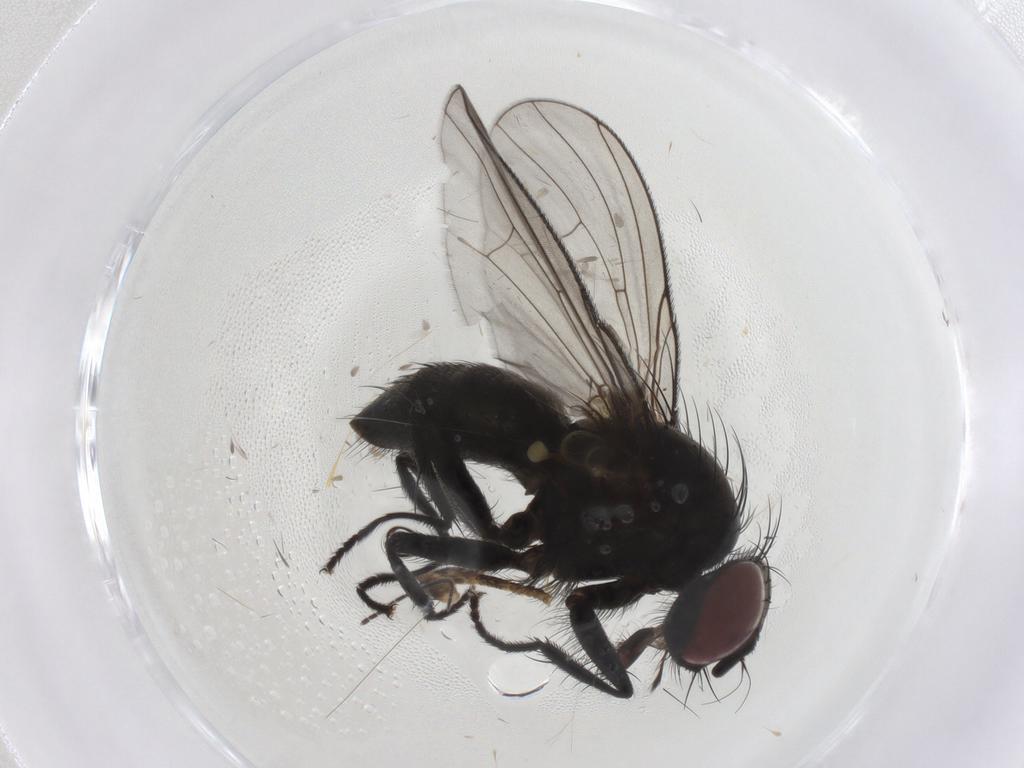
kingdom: Animalia
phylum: Arthropoda
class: Insecta
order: Diptera
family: Muscidae
